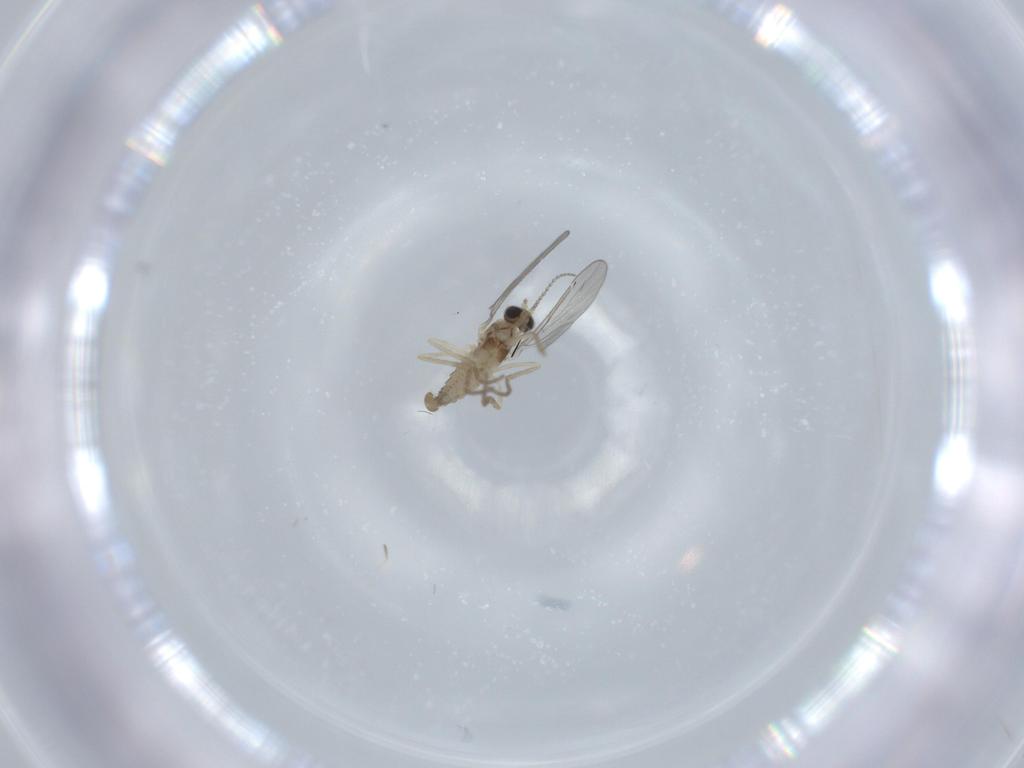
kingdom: Animalia
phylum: Arthropoda
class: Insecta
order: Diptera
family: Cecidomyiidae
